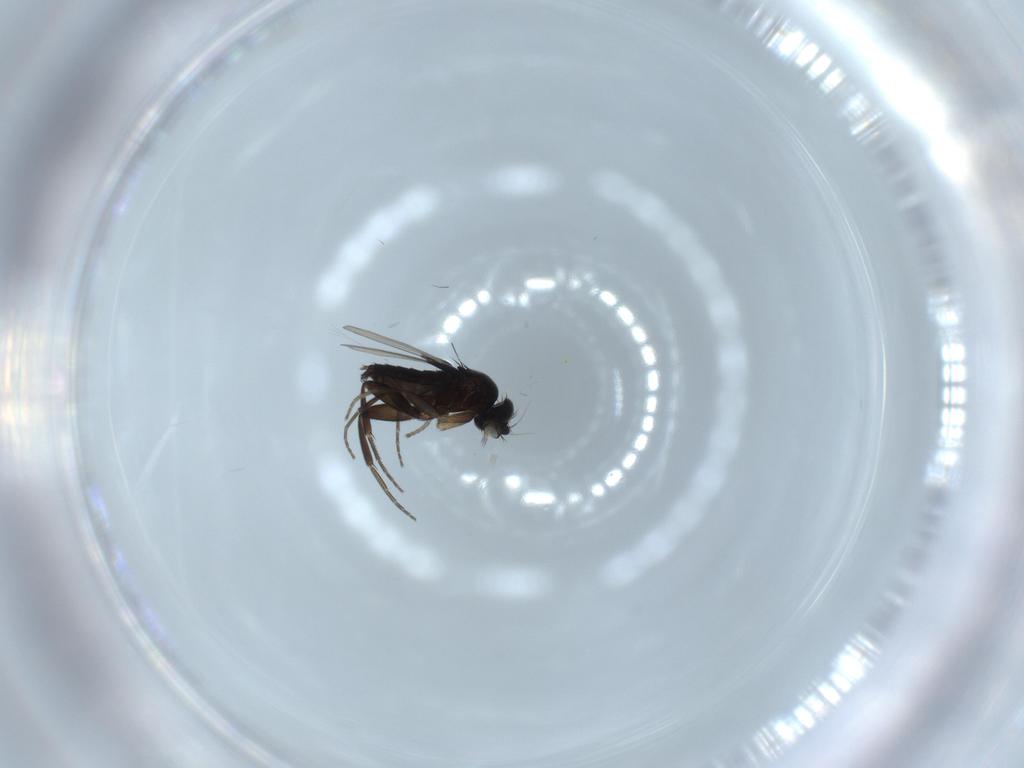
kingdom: Animalia
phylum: Arthropoda
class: Insecta
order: Diptera
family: Phoridae
